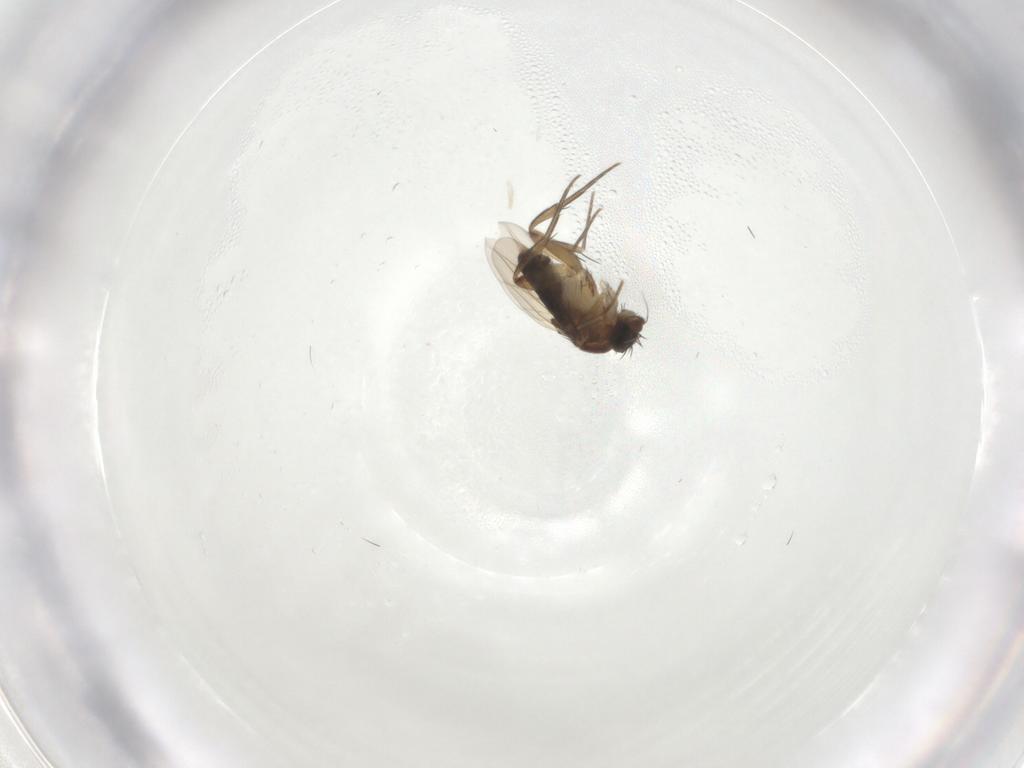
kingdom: Animalia
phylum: Arthropoda
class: Insecta
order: Diptera
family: Phoridae
